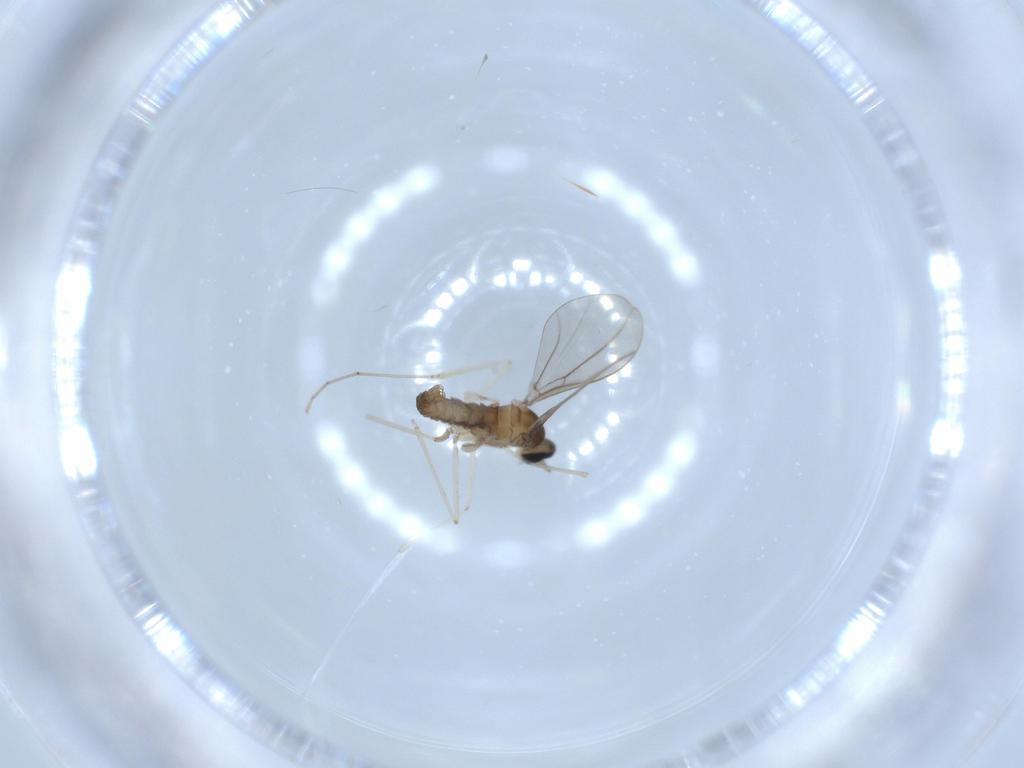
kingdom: Animalia
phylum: Arthropoda
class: Insecta
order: Diptera
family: Cecidomyiidae
